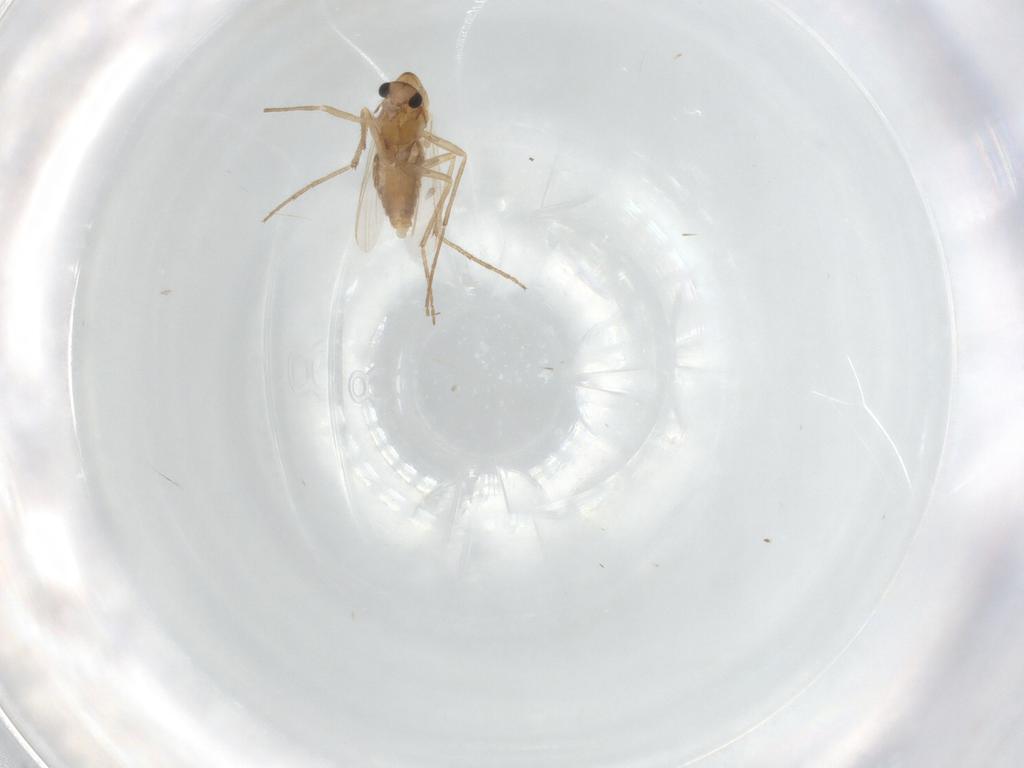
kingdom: Animalia
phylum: Arthropoda
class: Insecta
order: Diptera
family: Chironomidae
